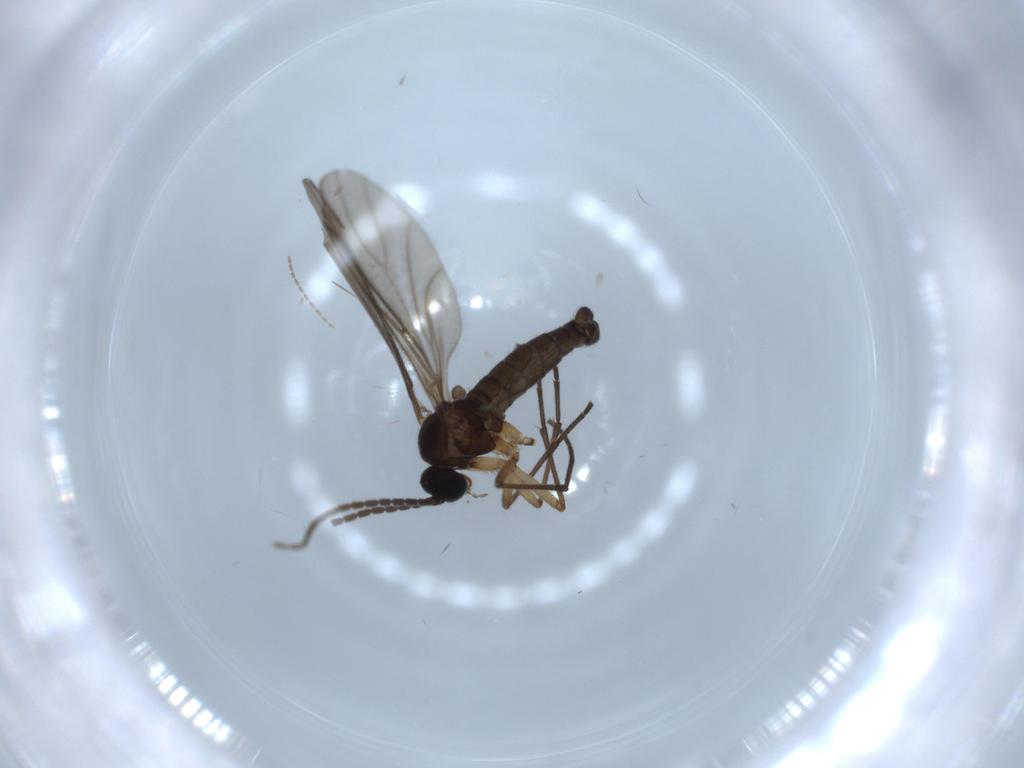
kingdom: Animalia
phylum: Arthropoda
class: Insecta
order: Diptera
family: Cecidomyiidae
